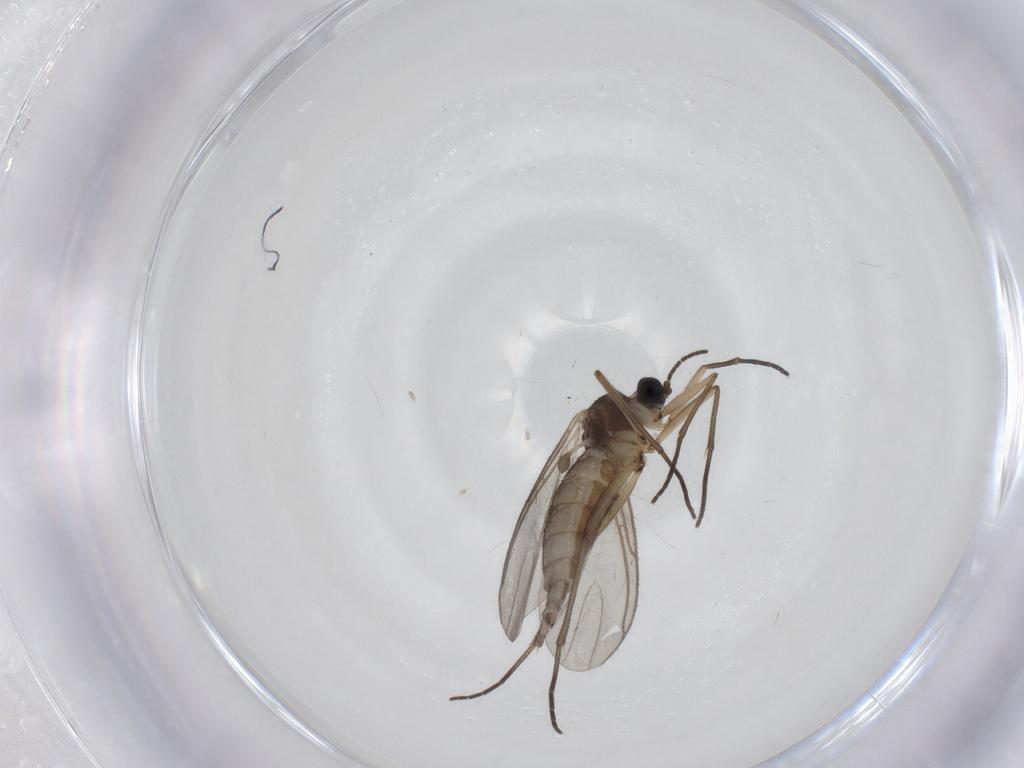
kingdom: Animalia
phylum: Arthropoda
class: Insecta
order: Diptera
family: Sciaridae
